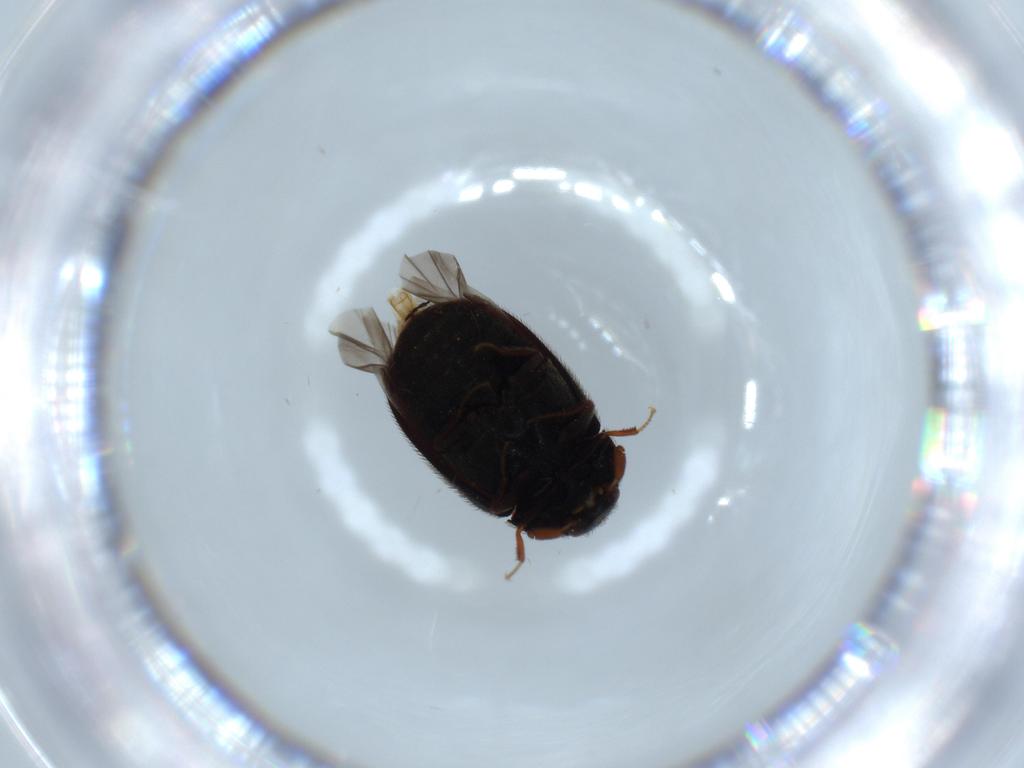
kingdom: Animalia
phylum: Arthropoda
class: Insecta
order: Coleoptera
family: Dermestidae
